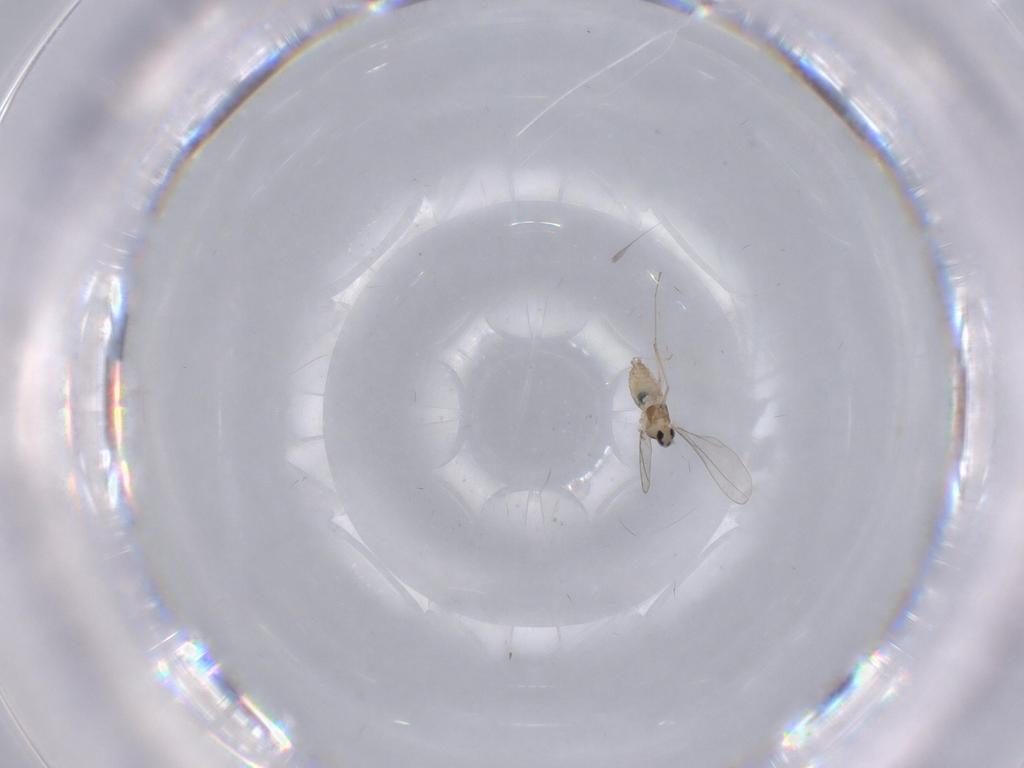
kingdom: Animalia
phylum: Arthropoda
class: Insecta
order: Diptera
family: Cecidomyiidae
